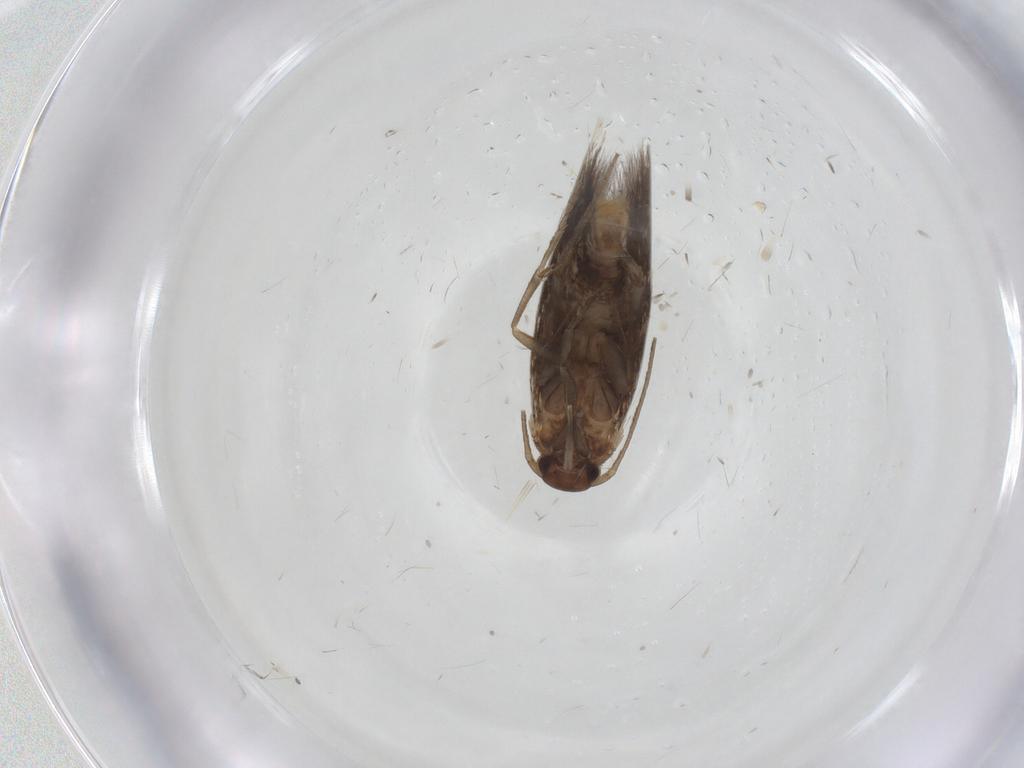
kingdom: Animalia
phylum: Arthropoda
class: Insecta
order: Lepidoptera
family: Elachistidae
